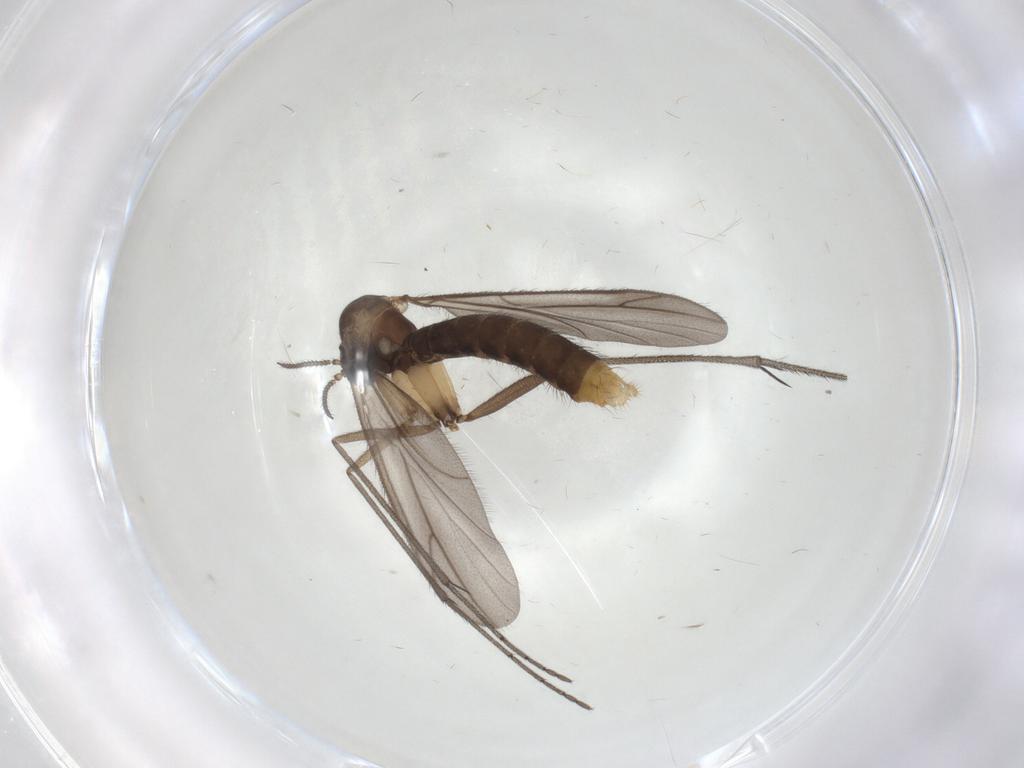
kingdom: Animalia
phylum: Arthropoda
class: Insecta
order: Diptera
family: Ditomyiidae
